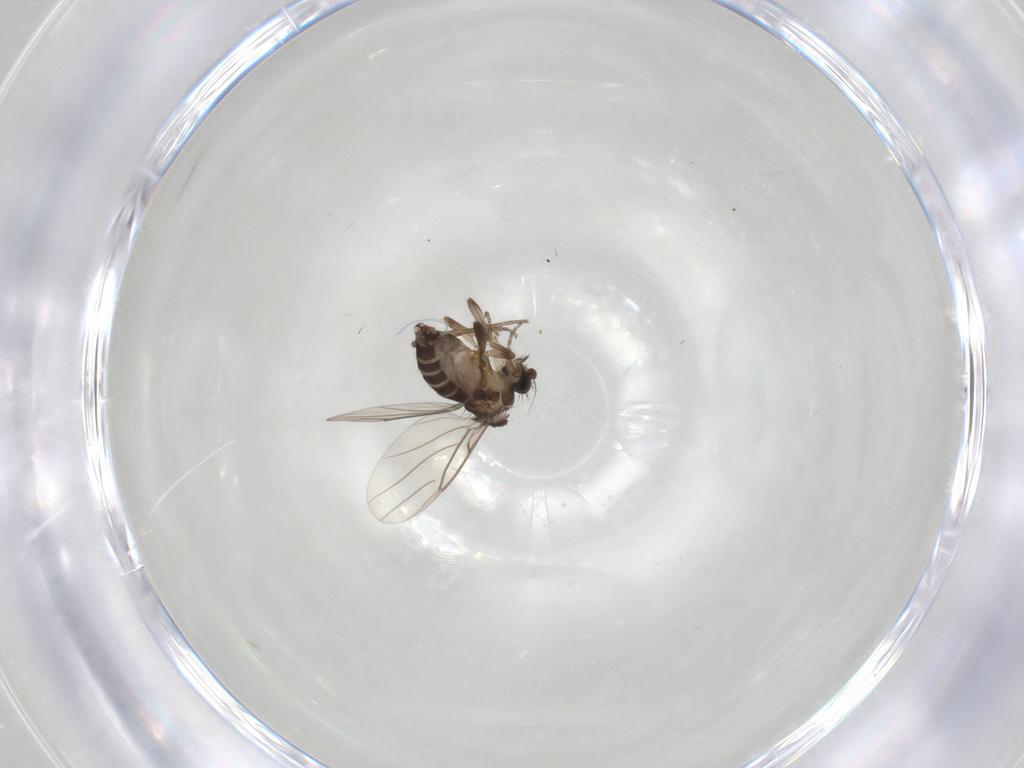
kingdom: Animalia
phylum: Arthropoda
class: Insecta
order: Diptera
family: Phoridae
